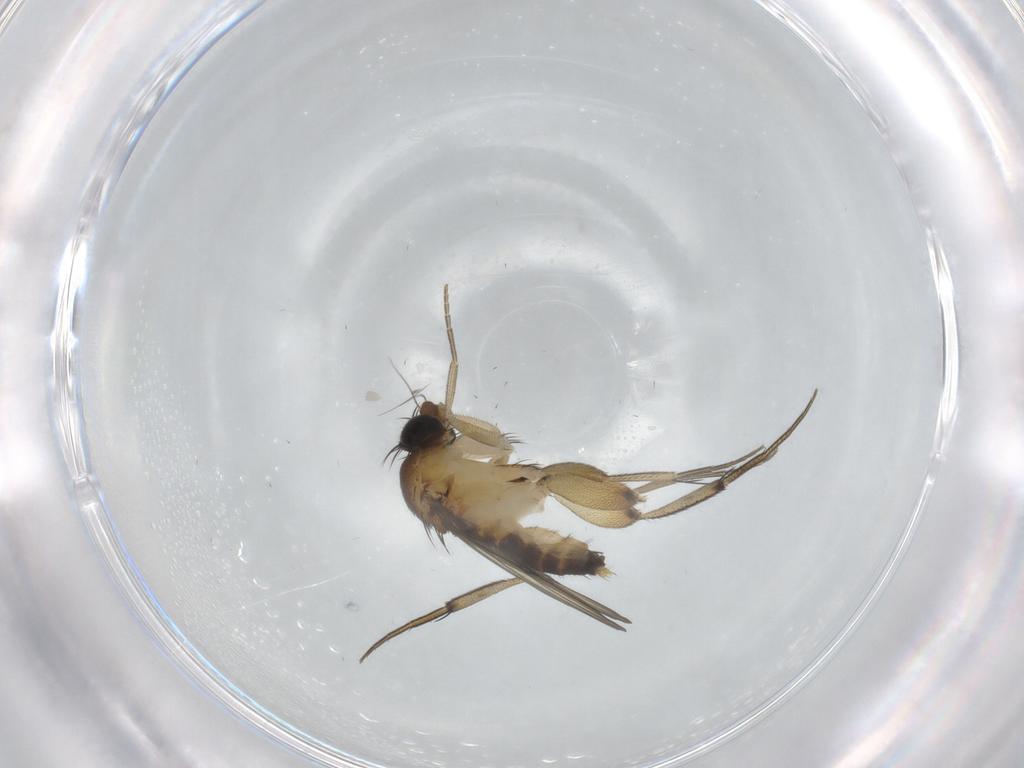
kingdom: Animalia
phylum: Arthropoda
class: Insecta
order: Diptera
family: Phoridae
